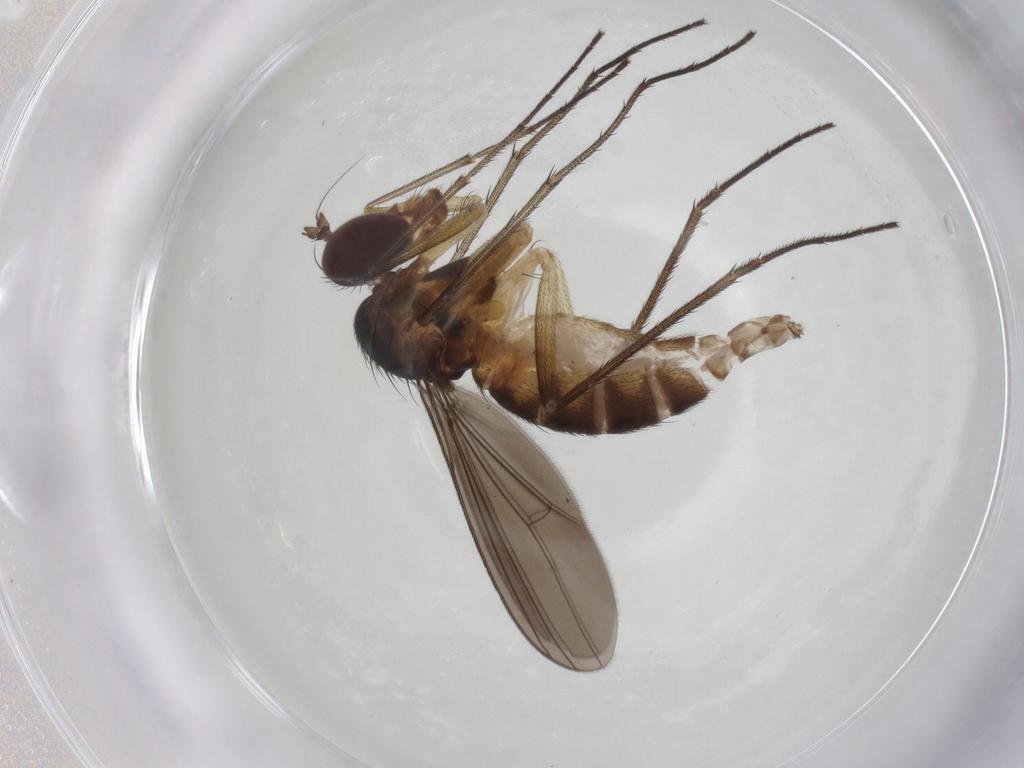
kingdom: Animalia
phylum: Arthropoda
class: Insecta
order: Diptera
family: Dolichopodidae
